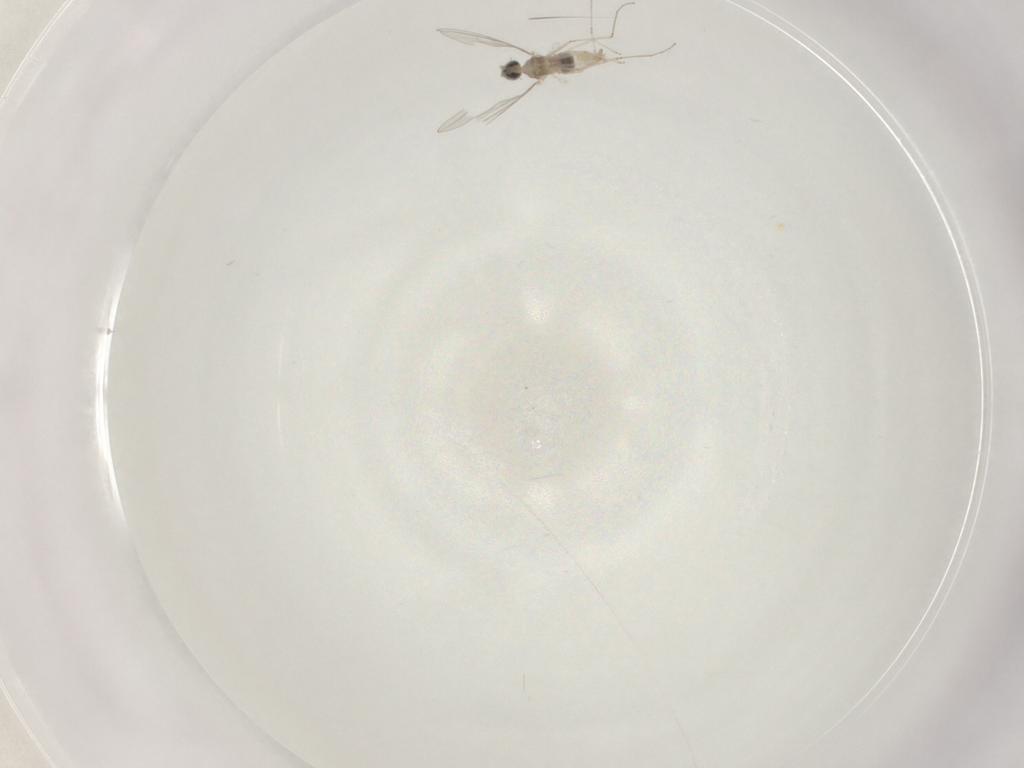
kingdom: Animalia
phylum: Arthropoda
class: Insecta
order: Diptera
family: Cecidomyiidae
